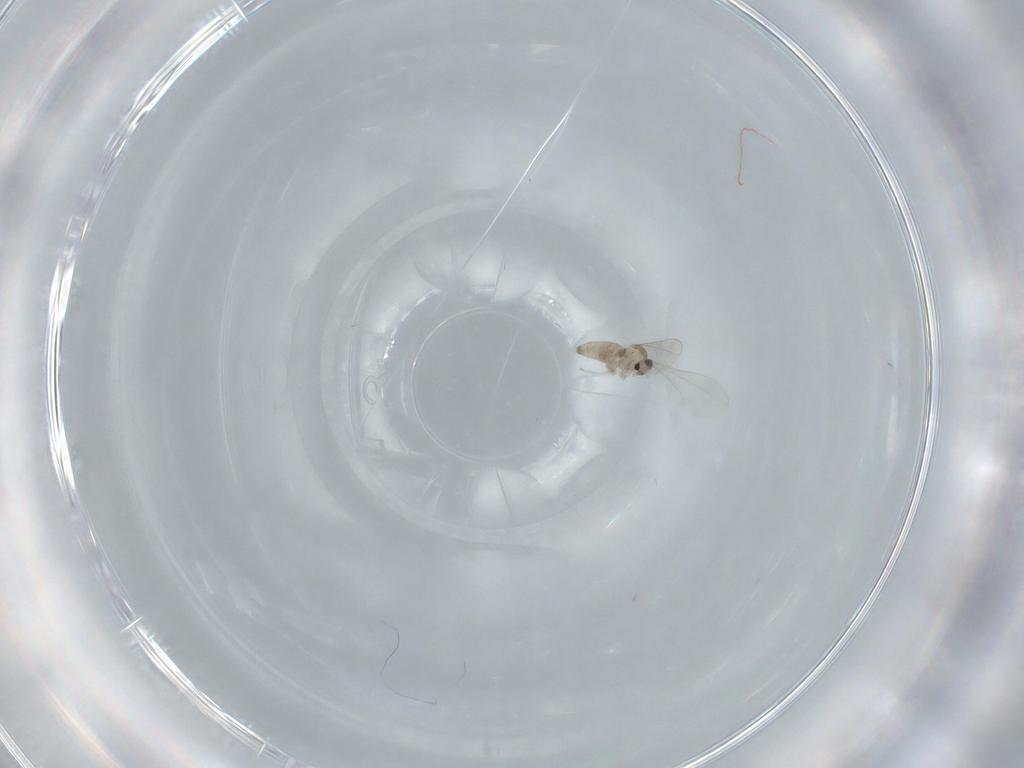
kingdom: Animalia
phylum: Arthropoda
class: Insecta
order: Diptera
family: Cecidomyiidae
